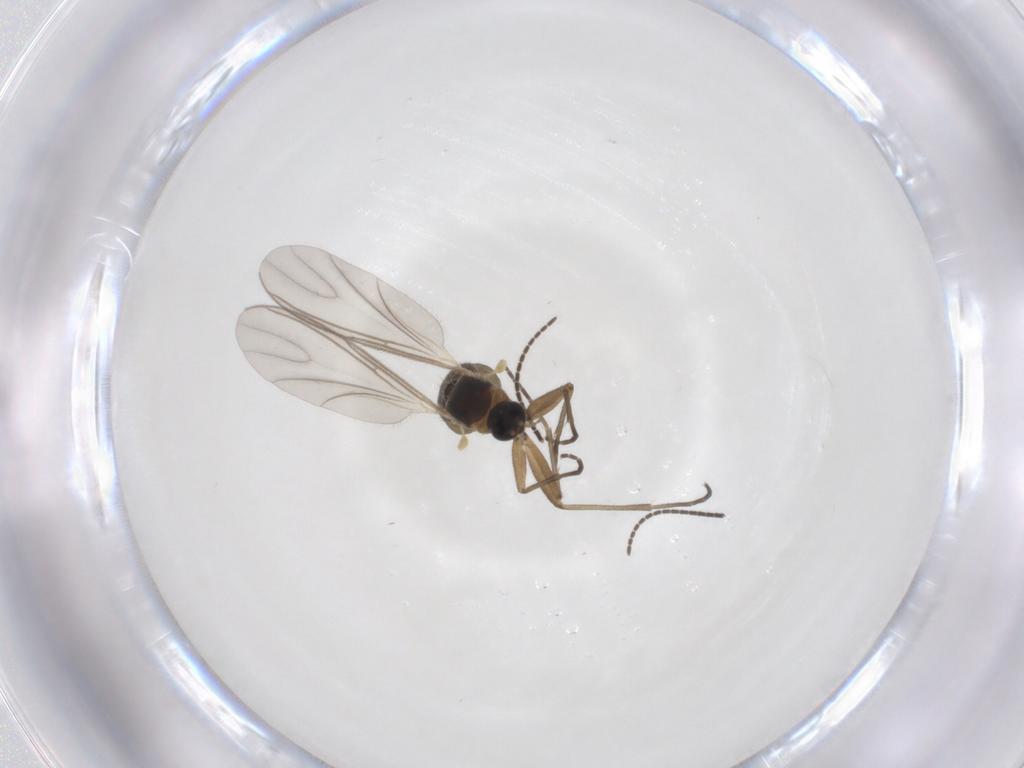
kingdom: Animalia
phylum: Arthropoda
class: Insecta
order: Diptera
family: Sciaridae
